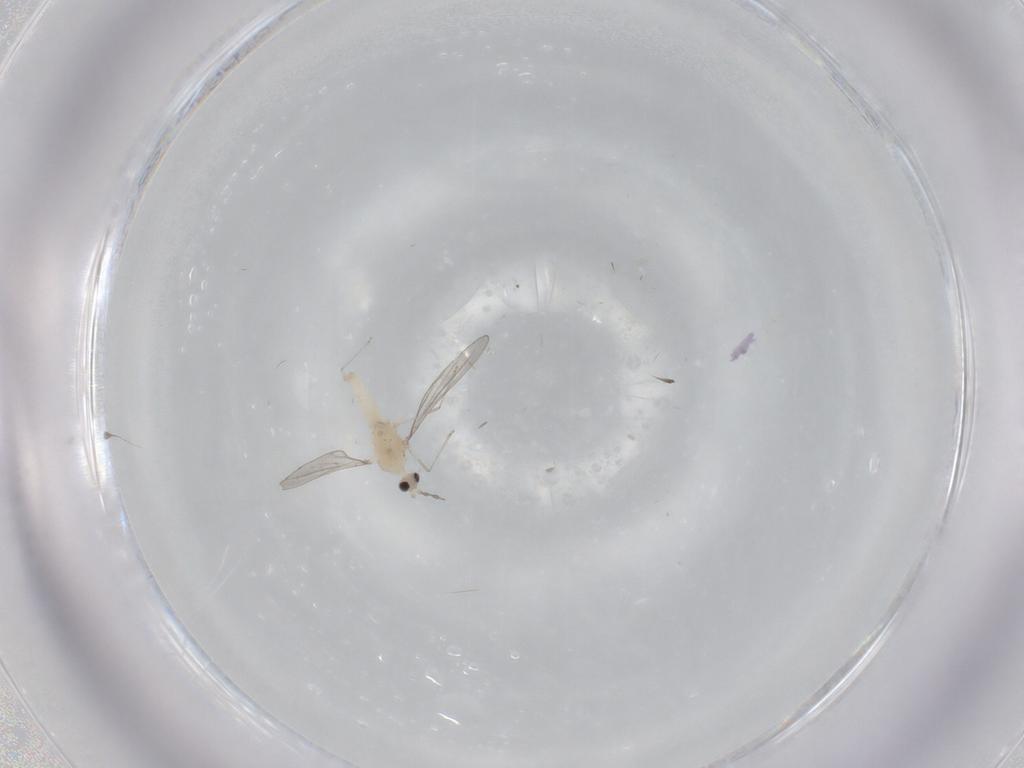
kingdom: Animalia
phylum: Arthropoda
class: Insecta
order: Diptera
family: Cecidomyiidae
